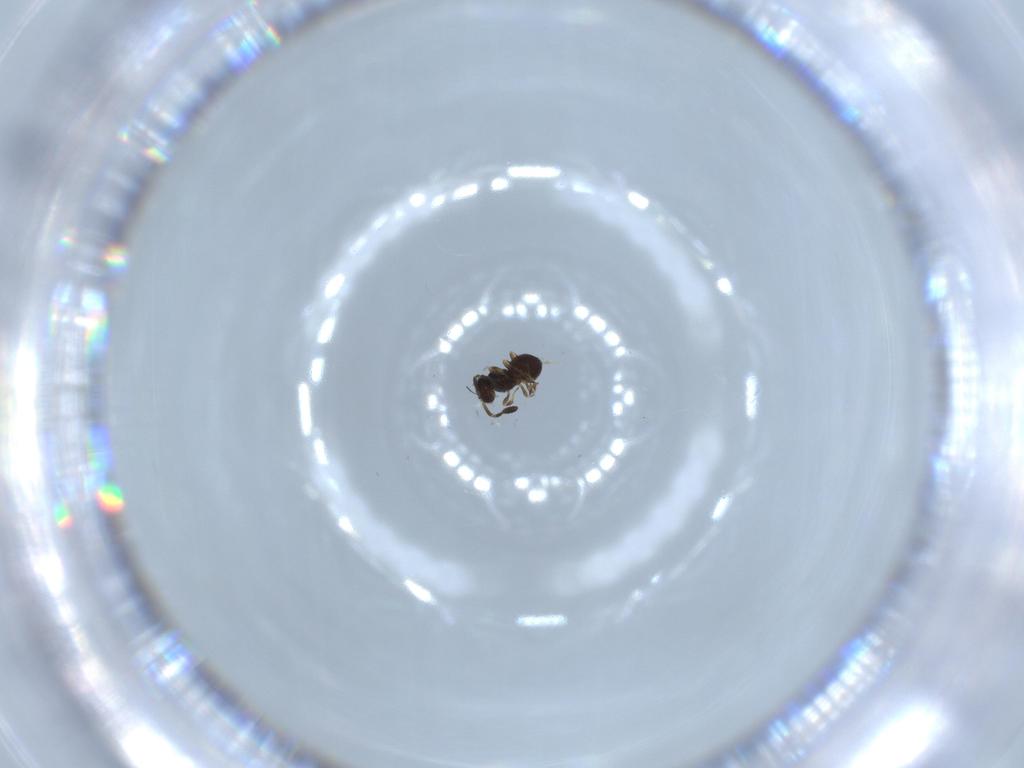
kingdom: Animalia
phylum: Arthropoda
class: Insecta
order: Hymenoptera
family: Scelionidae
